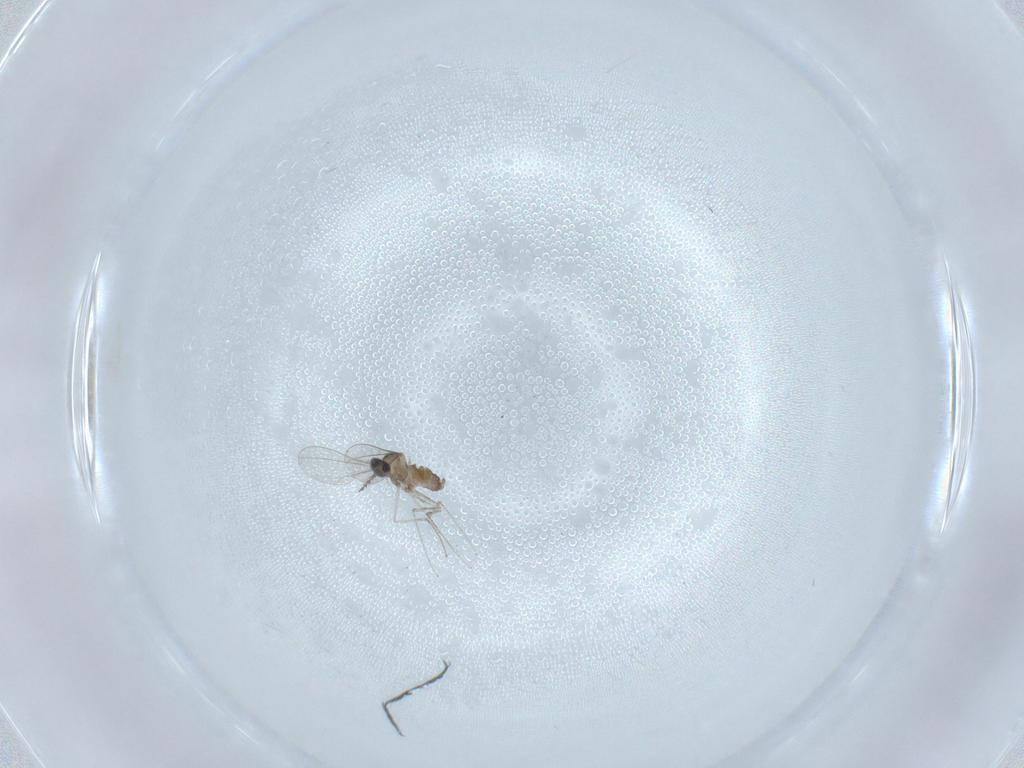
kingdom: Animalia
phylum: Arthropoda
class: Insecta
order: Diptera
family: Cecidomyiidae
